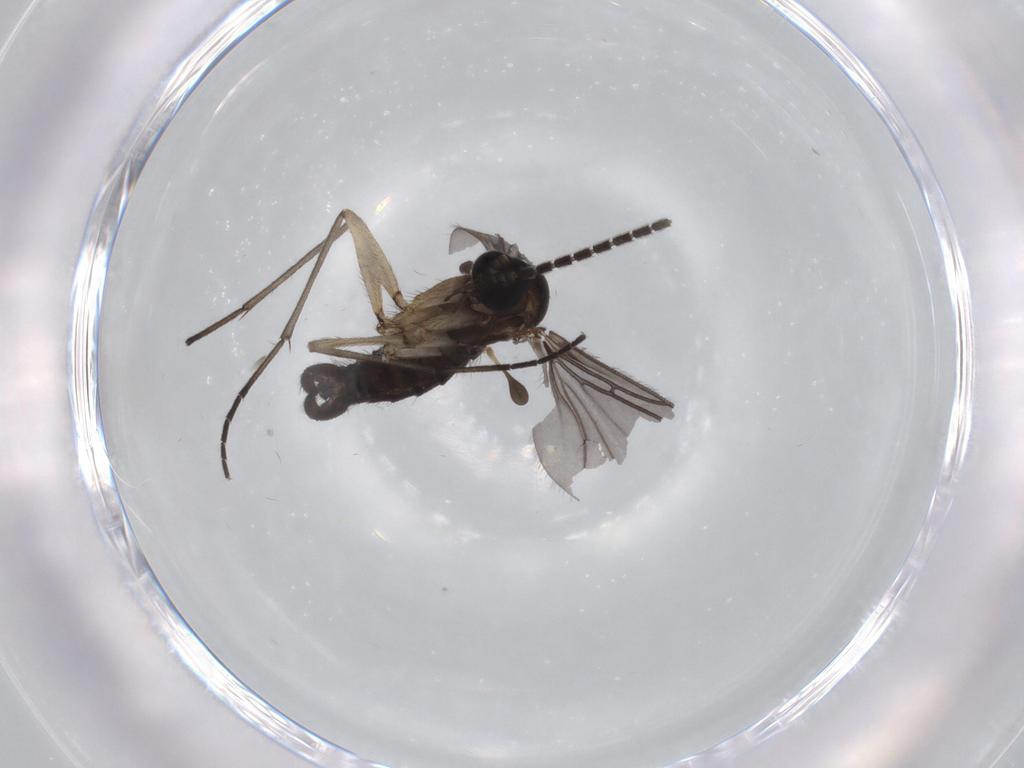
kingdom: Animalia
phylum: Arthropoda
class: Insecta
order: Diptera
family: Sciaridae
